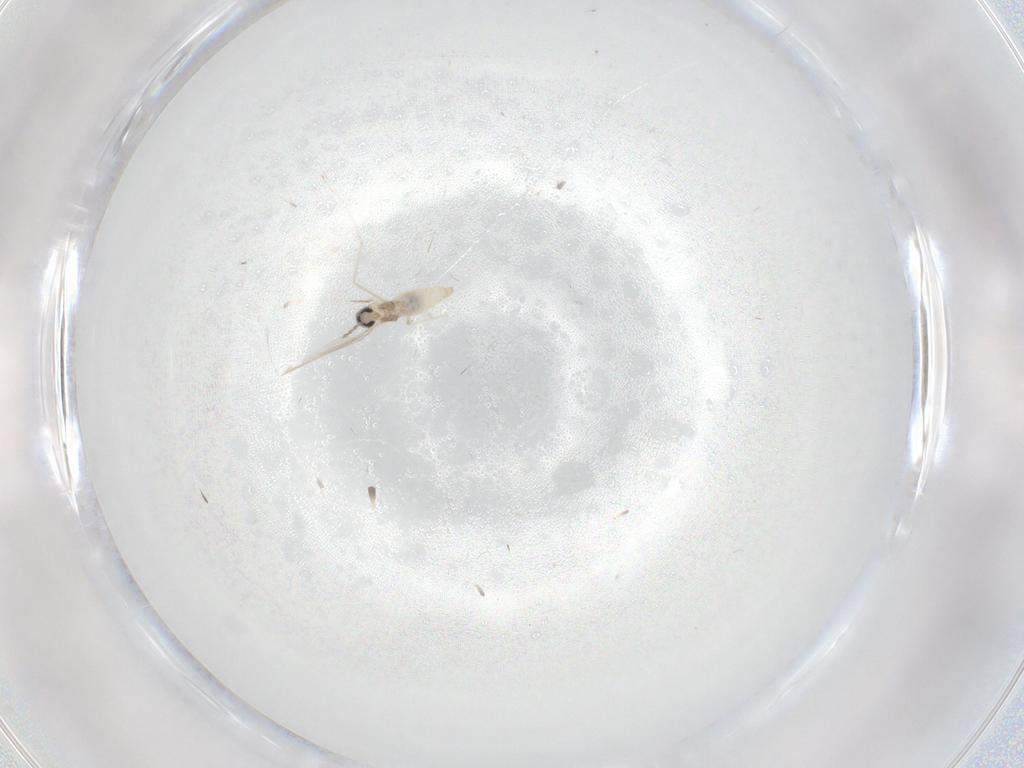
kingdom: Animalia
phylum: Arthropoda
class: Insecta
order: Diptera
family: Cecidomyiidae
